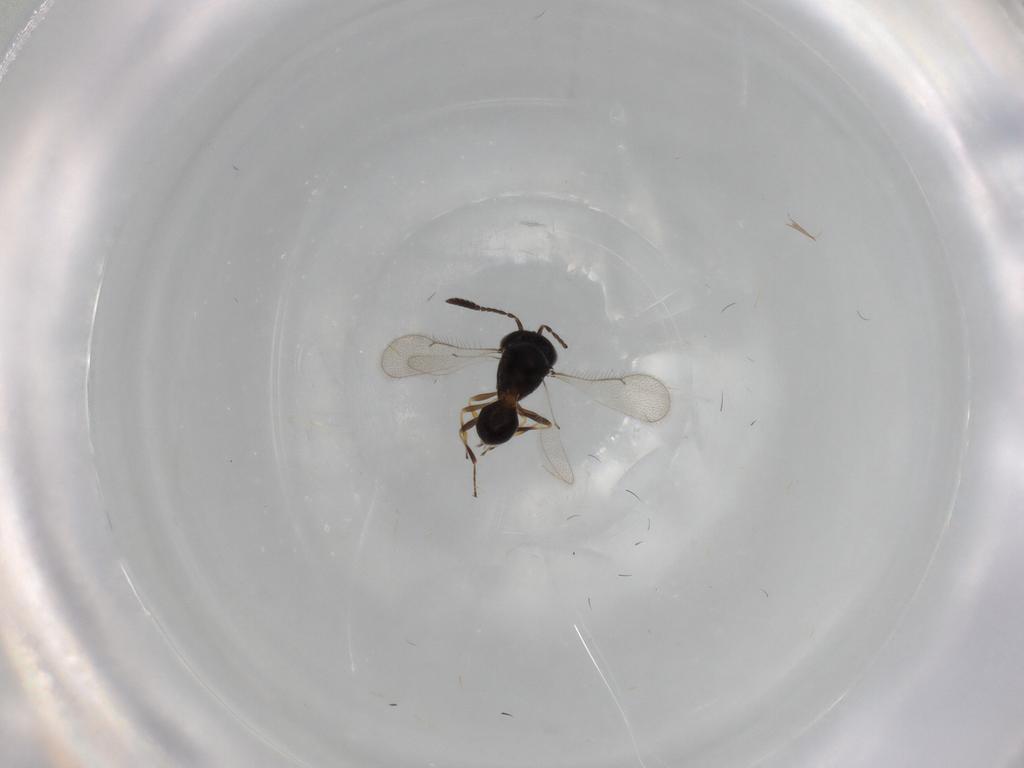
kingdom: Animalia
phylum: Arthropoda
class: Insecta
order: Hymenoptera
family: Scelionidae
